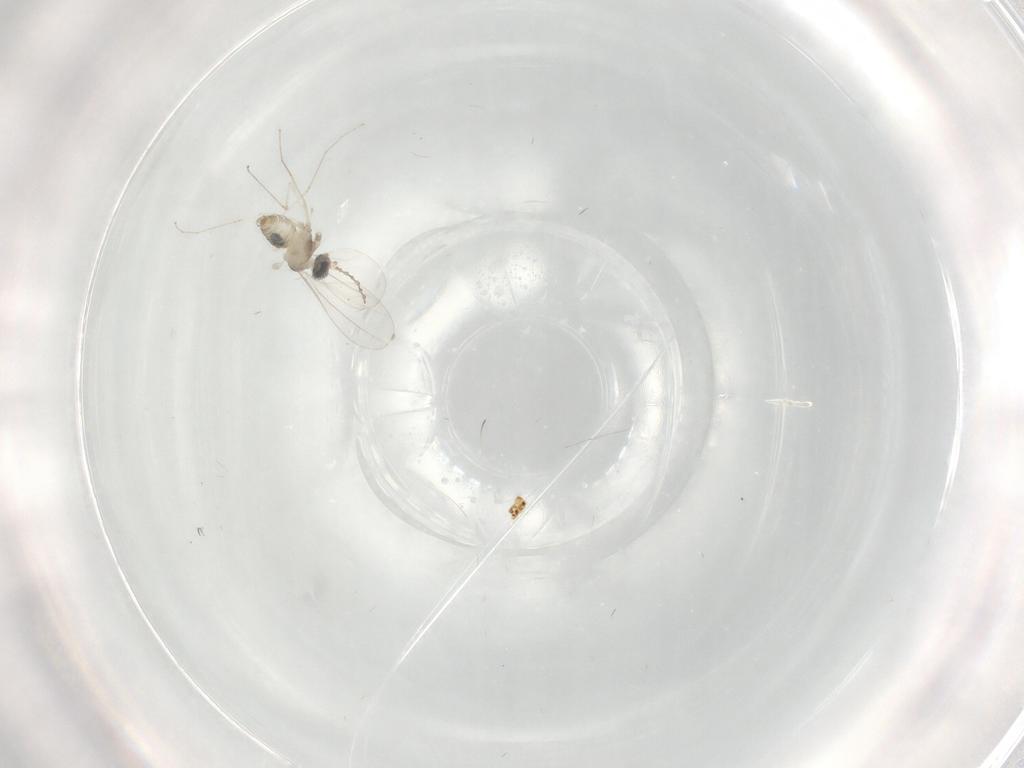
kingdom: Animalia
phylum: Arthropoda
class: Insecta
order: Diptera
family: Cecidomyiidae
